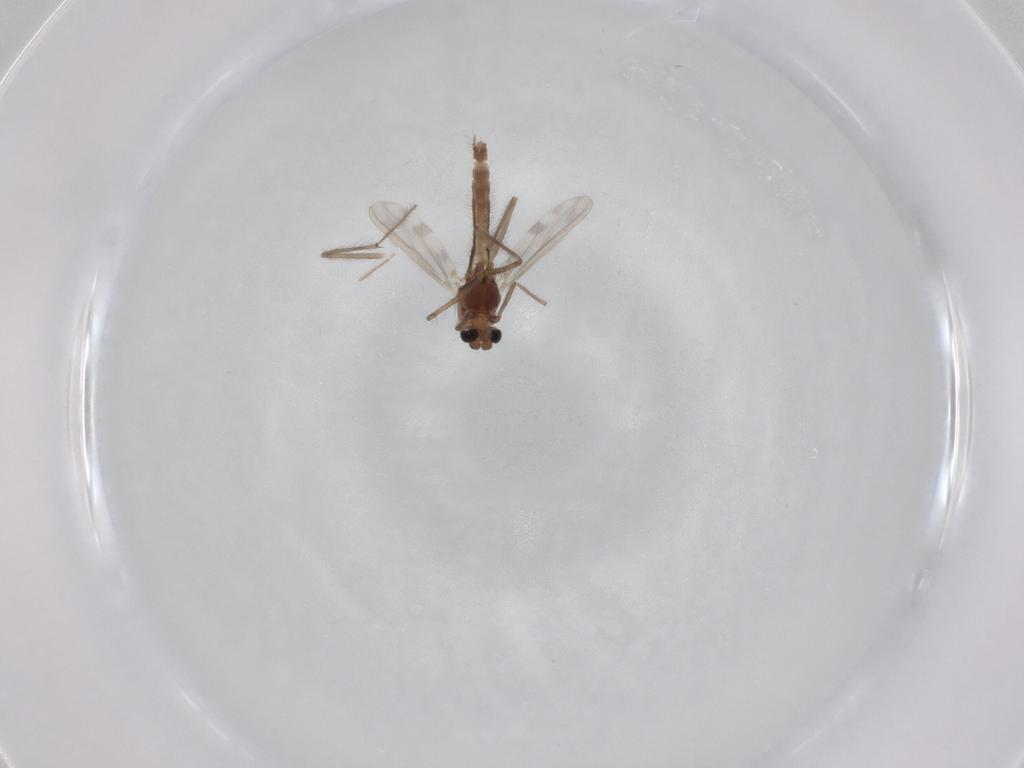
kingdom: Animalia
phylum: Arthropoda
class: Insecta
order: Diptera
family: Chironomidae
